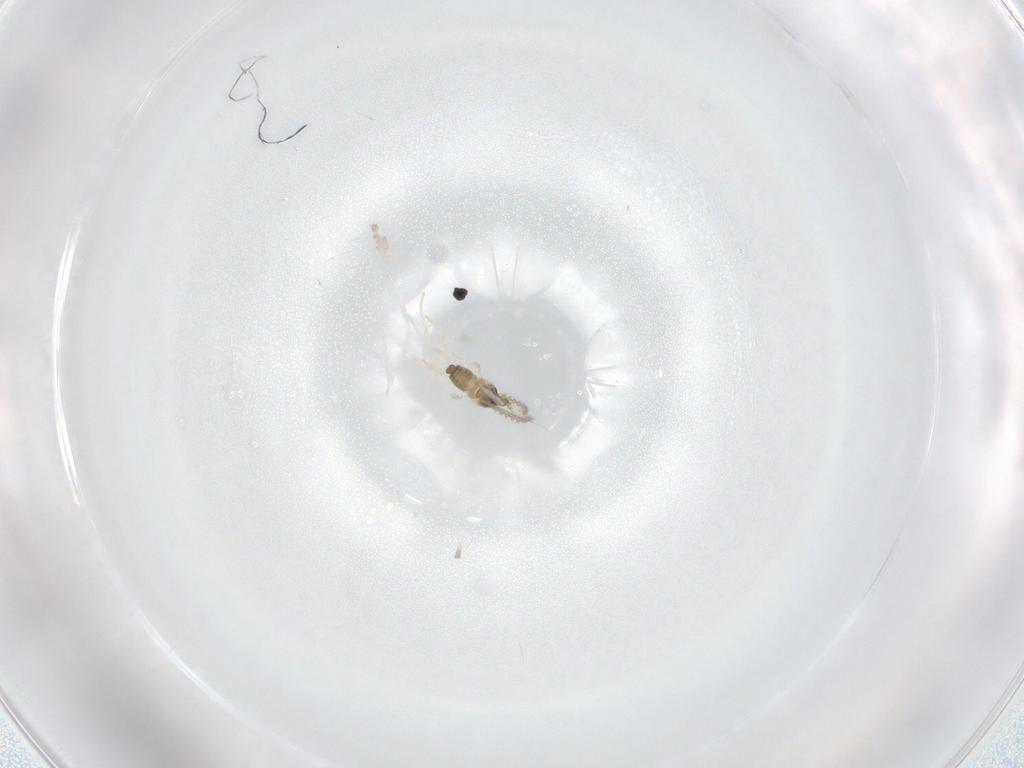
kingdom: Animalia
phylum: Arthropoda
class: Insecta
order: Diptera
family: Cecidomyiidae
